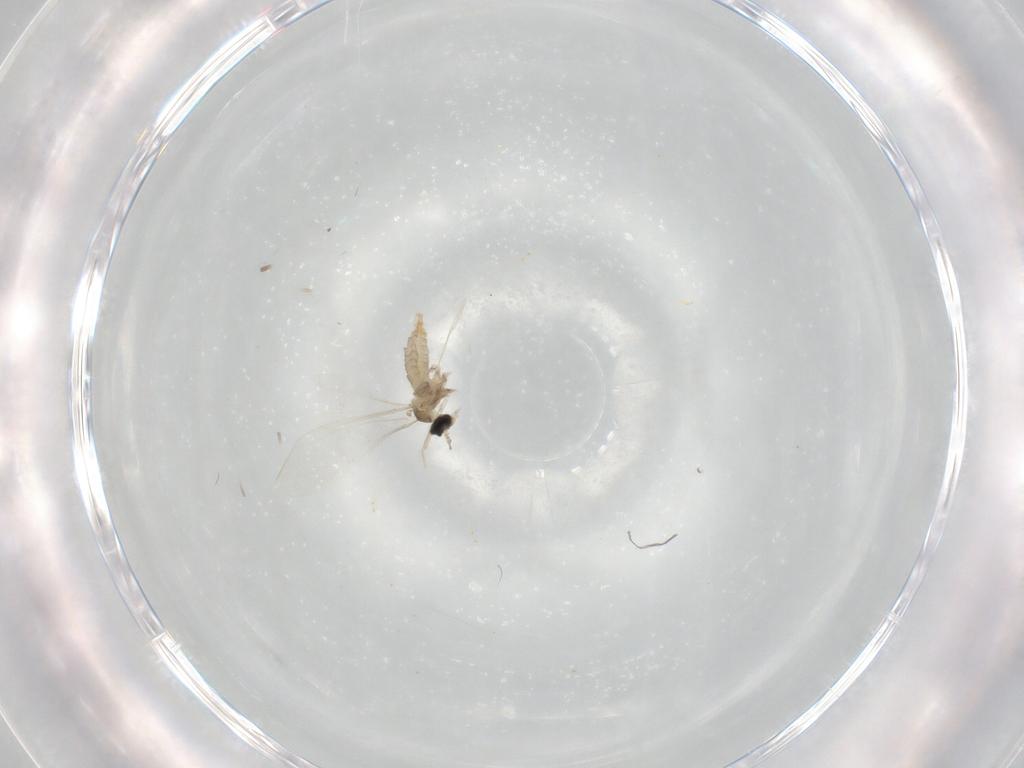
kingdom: Animalia
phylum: Arthropoda
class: Insecta
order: Diptera
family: Cecidomyiidae
